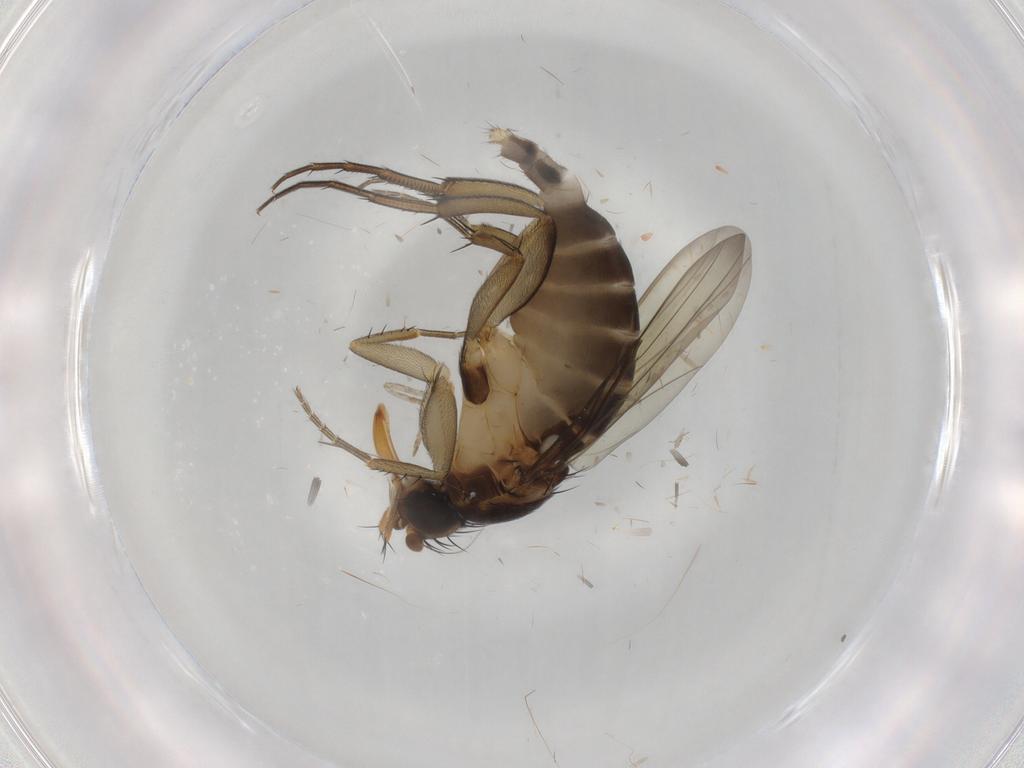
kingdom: Animalia
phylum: Arthropoda
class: Insecta
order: Diptera
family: Phoridae
